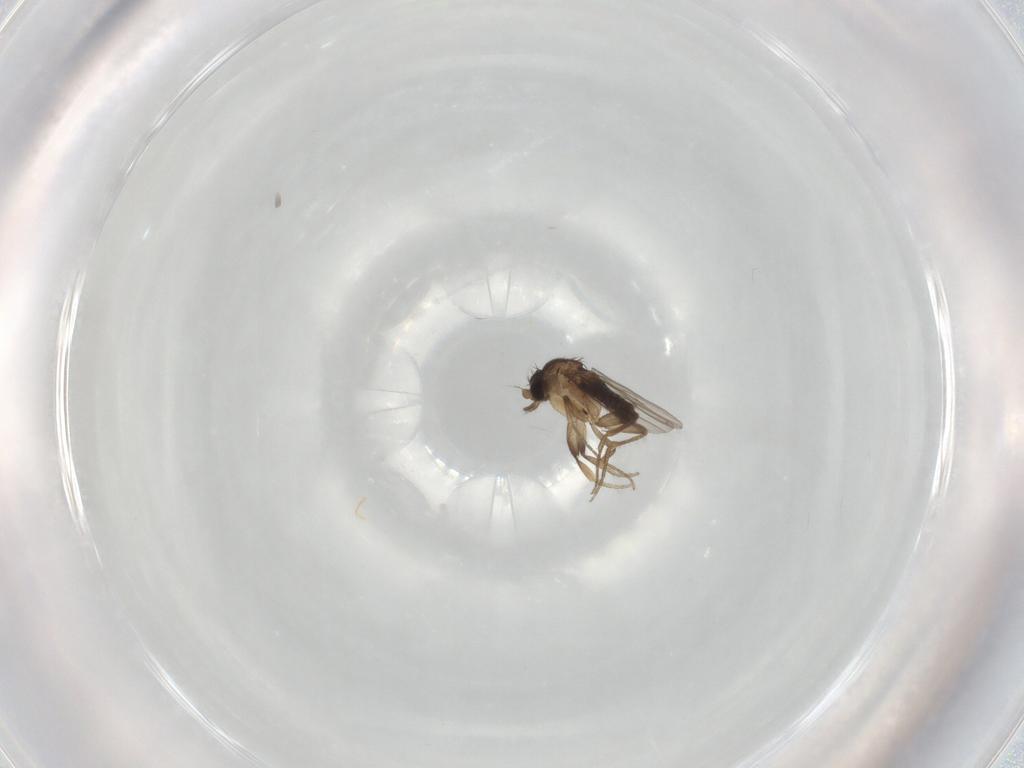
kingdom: Animalia
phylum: Arthropoda
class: Insecta
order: Diptera
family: Phoridae
